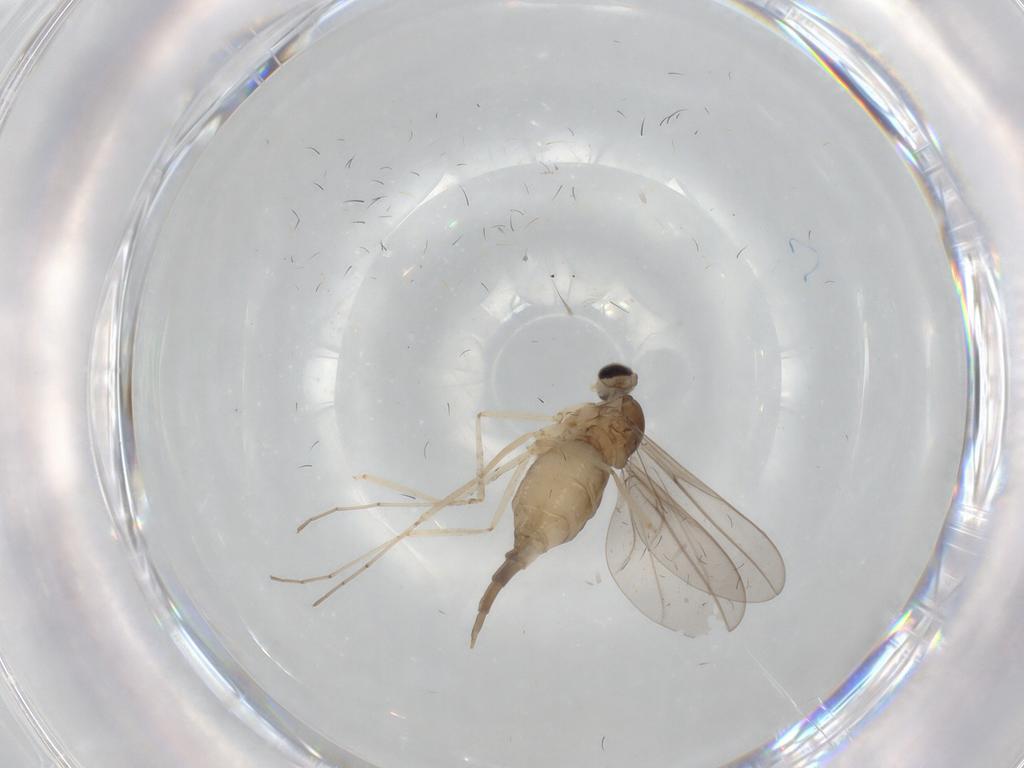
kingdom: Animalia
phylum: Arthropoda
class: Insecta
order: Diptera
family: Cecidomyiidae
